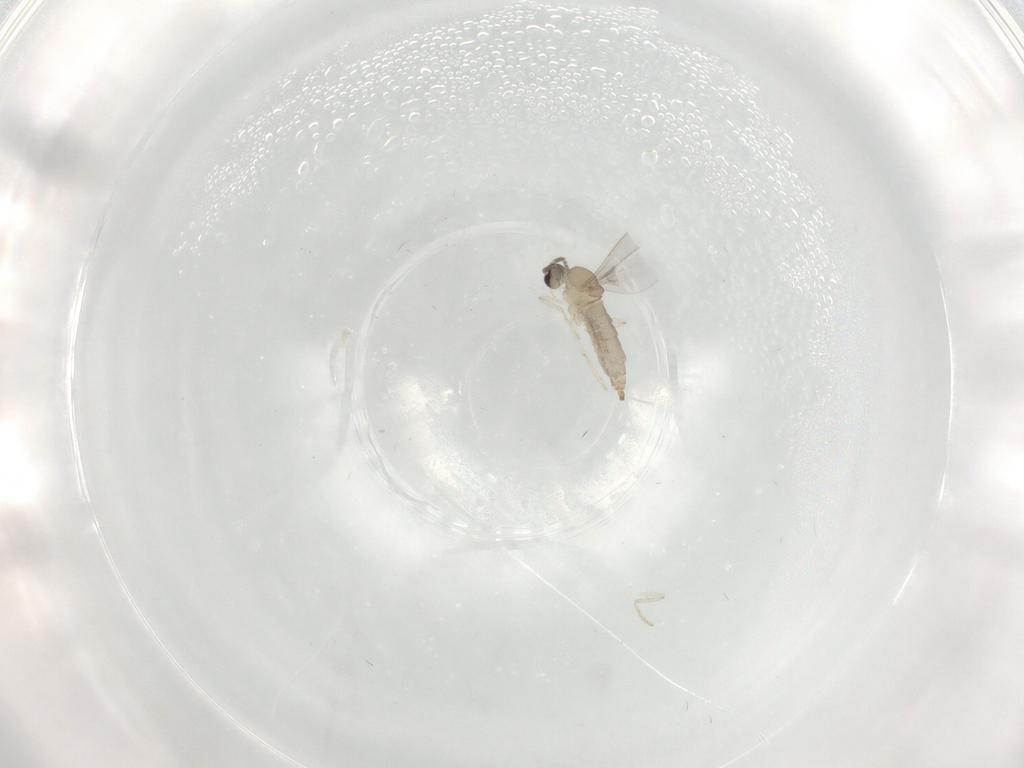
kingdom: Animalia
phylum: Arthropoda
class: Insecta
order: Diptera
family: Cecidomyiidae
